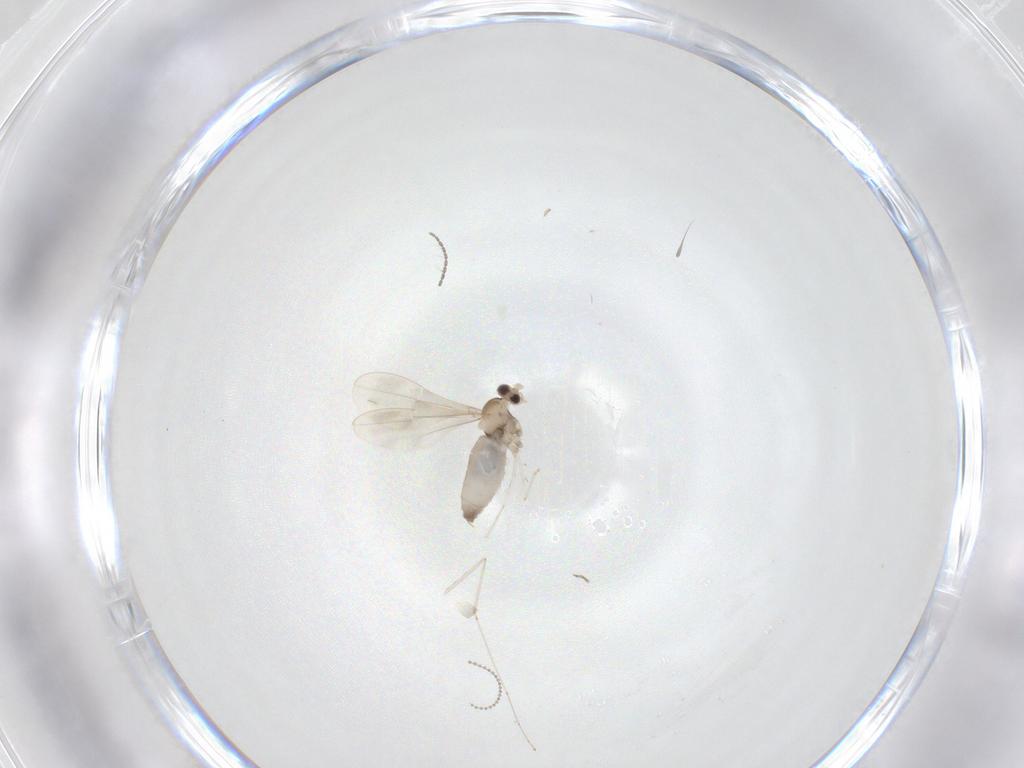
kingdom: Animalia
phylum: Arthropoda
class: Insecta
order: Diptera
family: Cecidomyiidae
